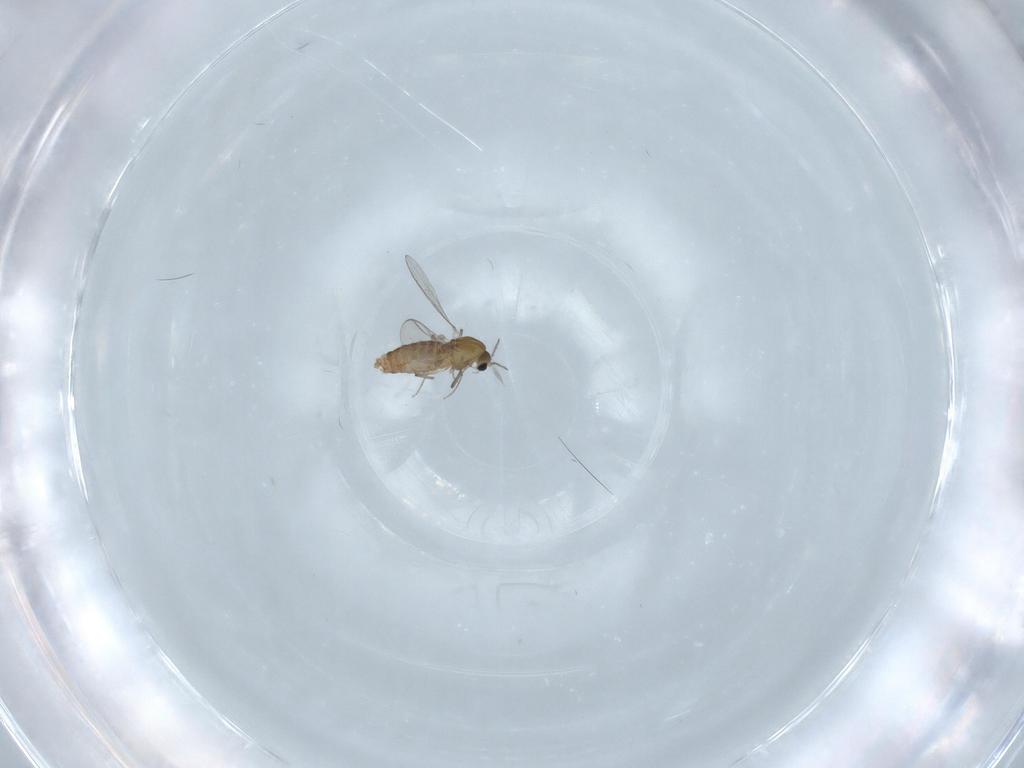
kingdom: Animalia
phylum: Arthropoda
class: Insecta
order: Diptera
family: Chironomidae
